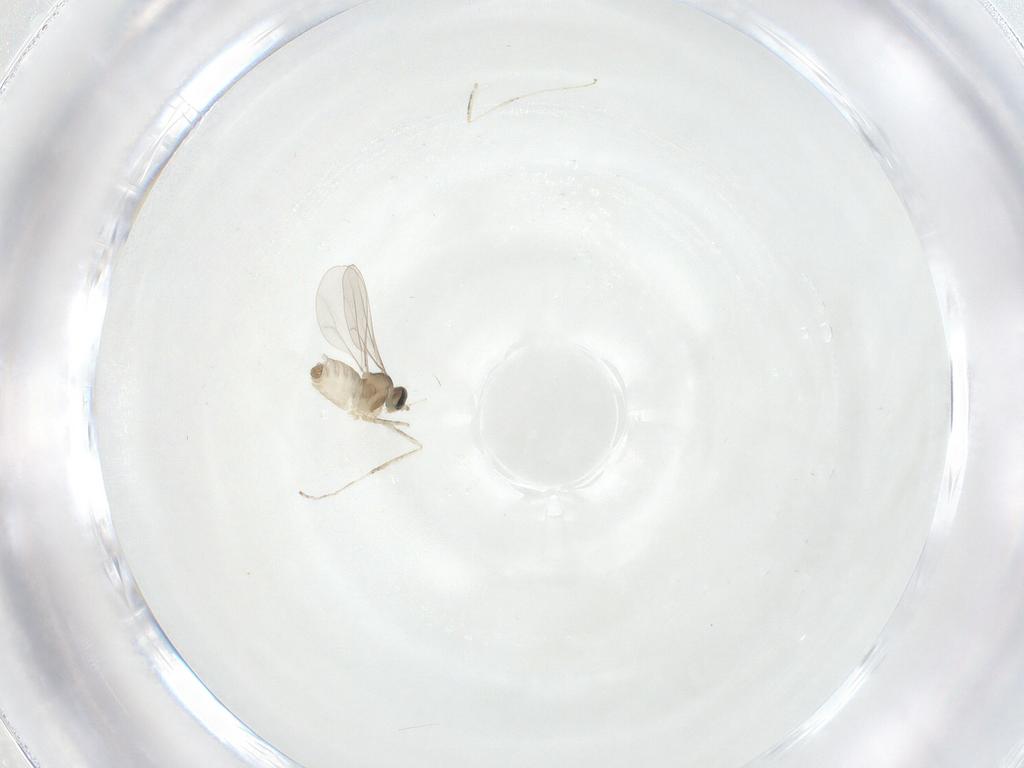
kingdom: Animalia
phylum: Arthropoda
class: Insecta
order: Diptera
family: Cecidomyiidae
